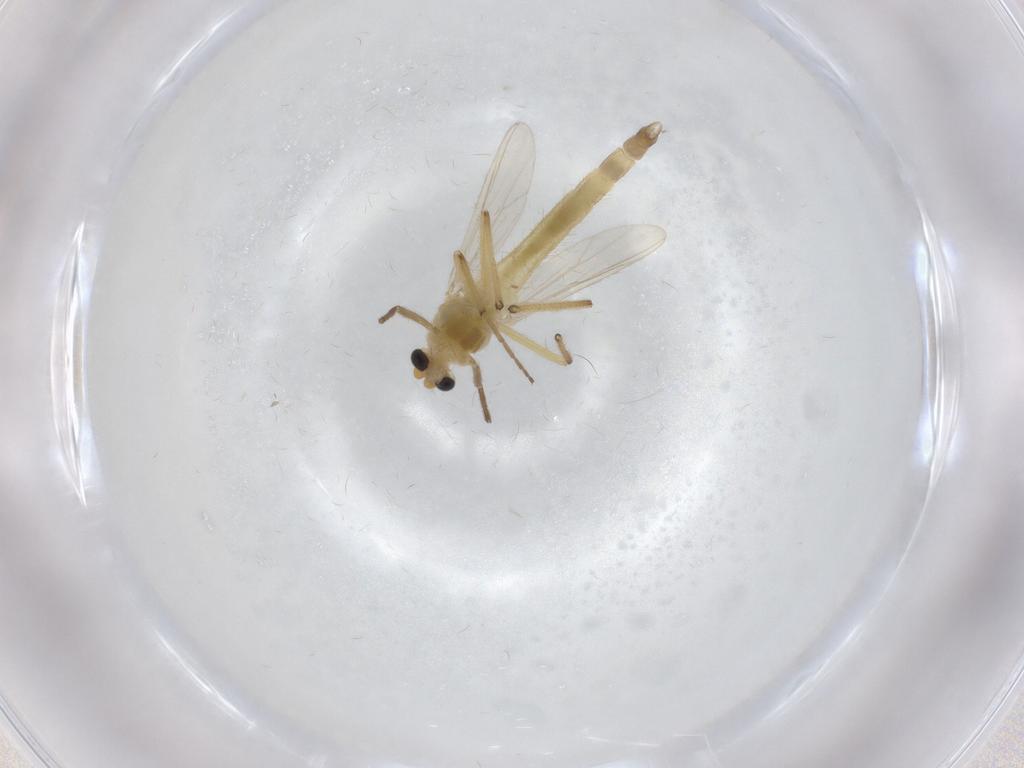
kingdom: Animalia
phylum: Arthropoda
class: Insecta
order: Diptera
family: Chironomidae
